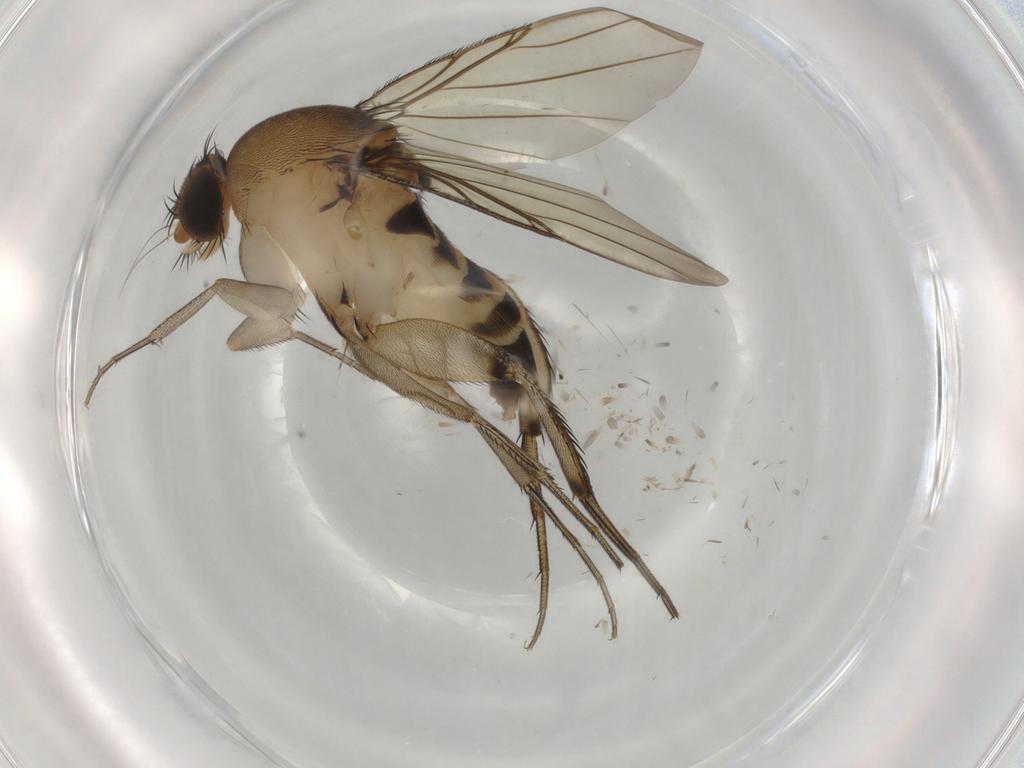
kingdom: Animalia
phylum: Arthropoda
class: Insecta
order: Diptera
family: Phoridae
